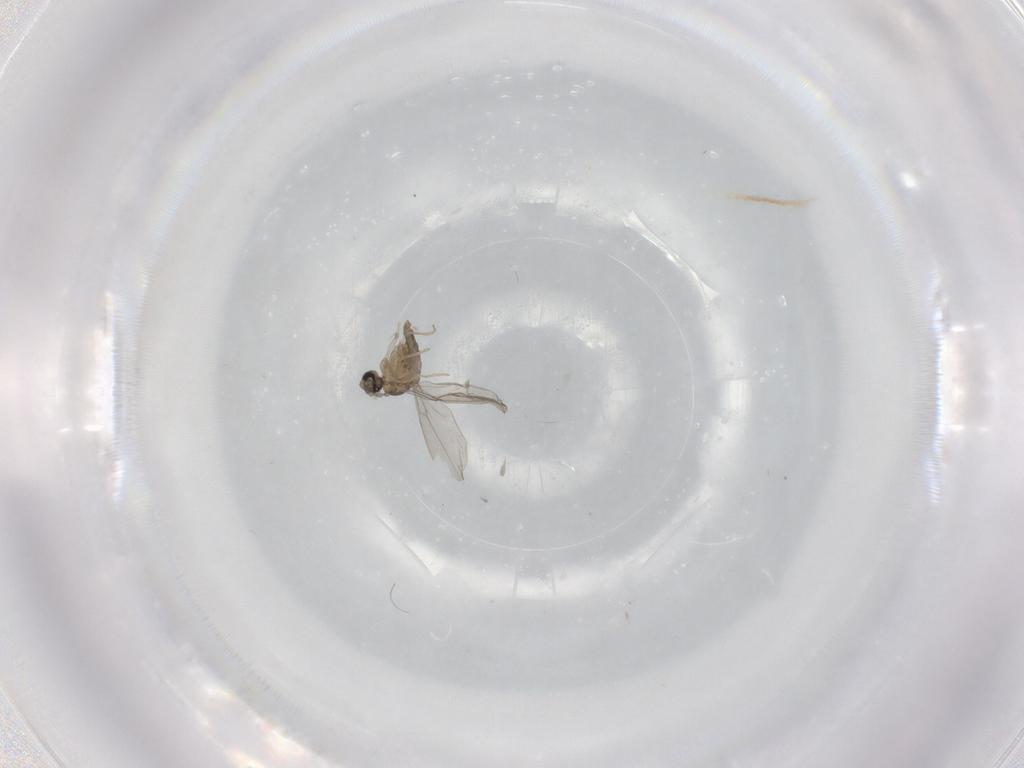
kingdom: Animalia
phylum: Arthropoda
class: Insecta
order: Diptera
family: Cecidomyiidae
